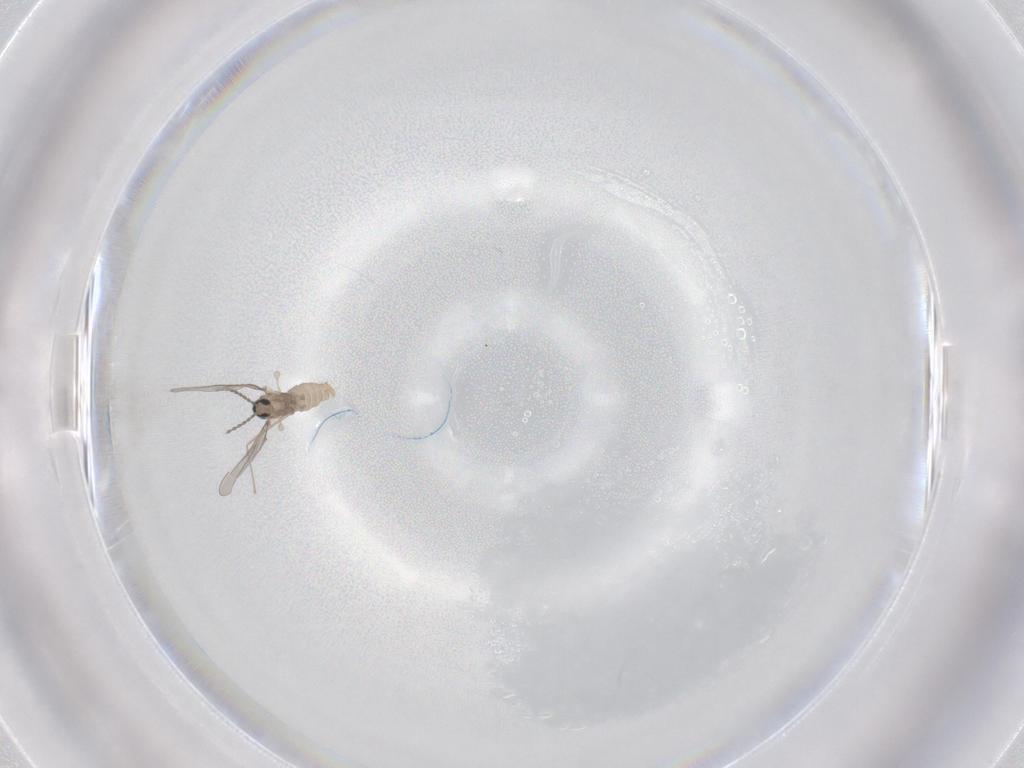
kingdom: Animalia
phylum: Arthropoda
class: Insecta
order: Diptera
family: Cecidomyiidae
